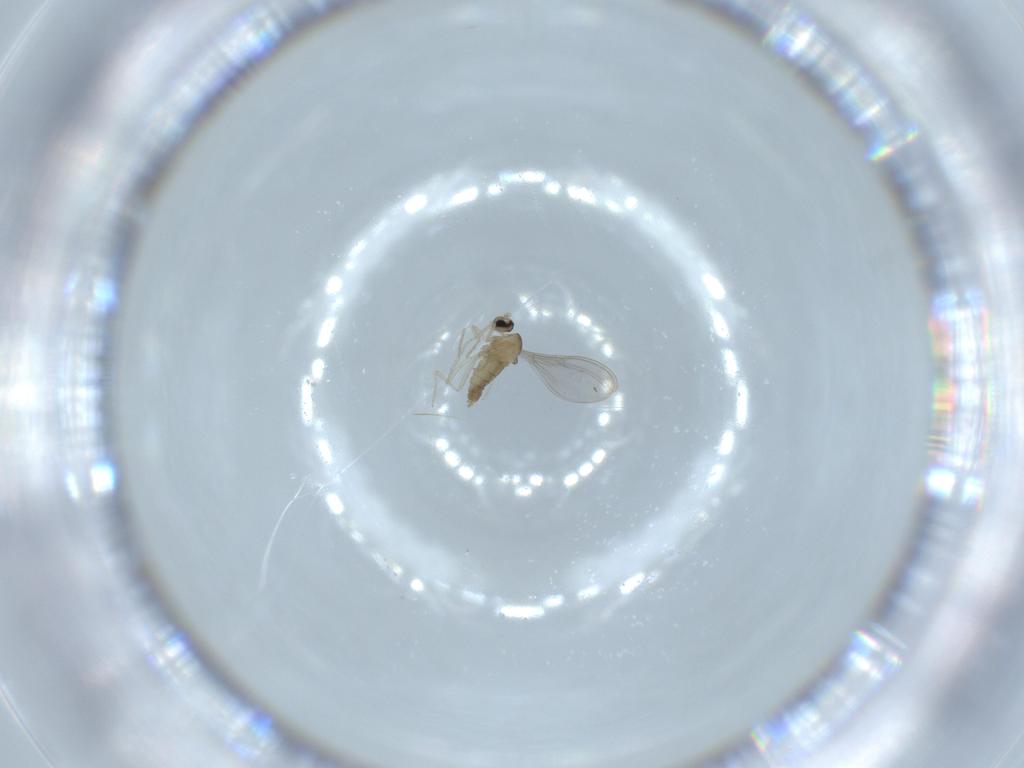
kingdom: Animalia
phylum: Arthropoda
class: Insecta
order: Diptera
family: Cecidomyiidae
